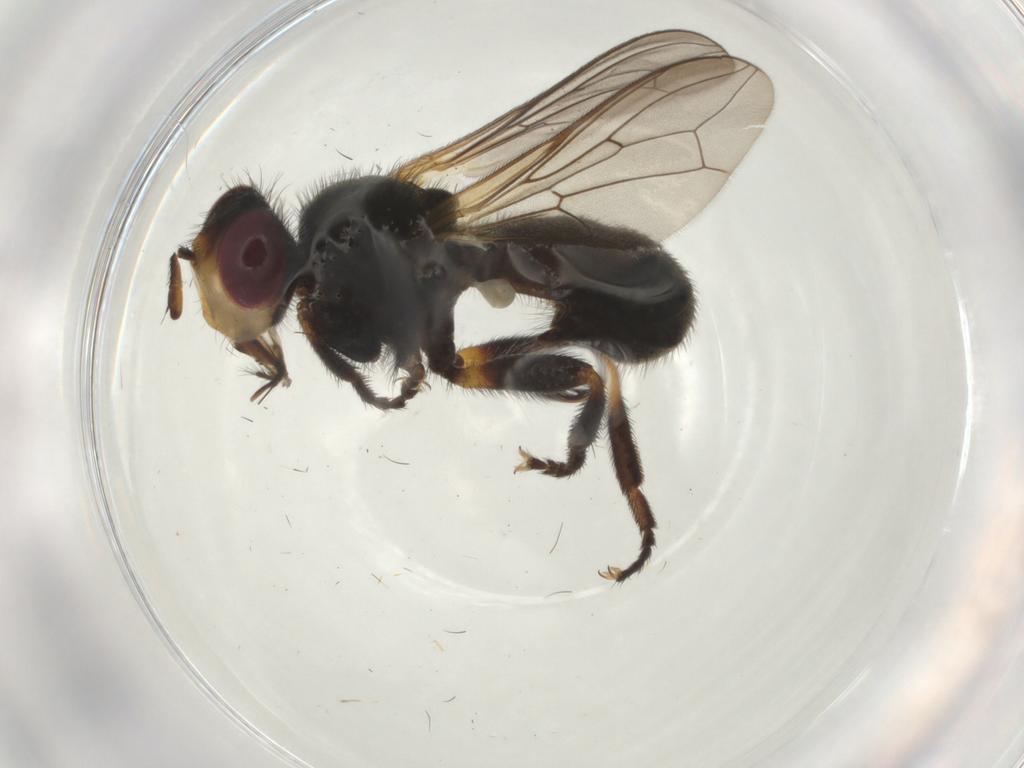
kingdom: Animalia
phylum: Arthropoda
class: Insecta
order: Diptera
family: Conopidae
